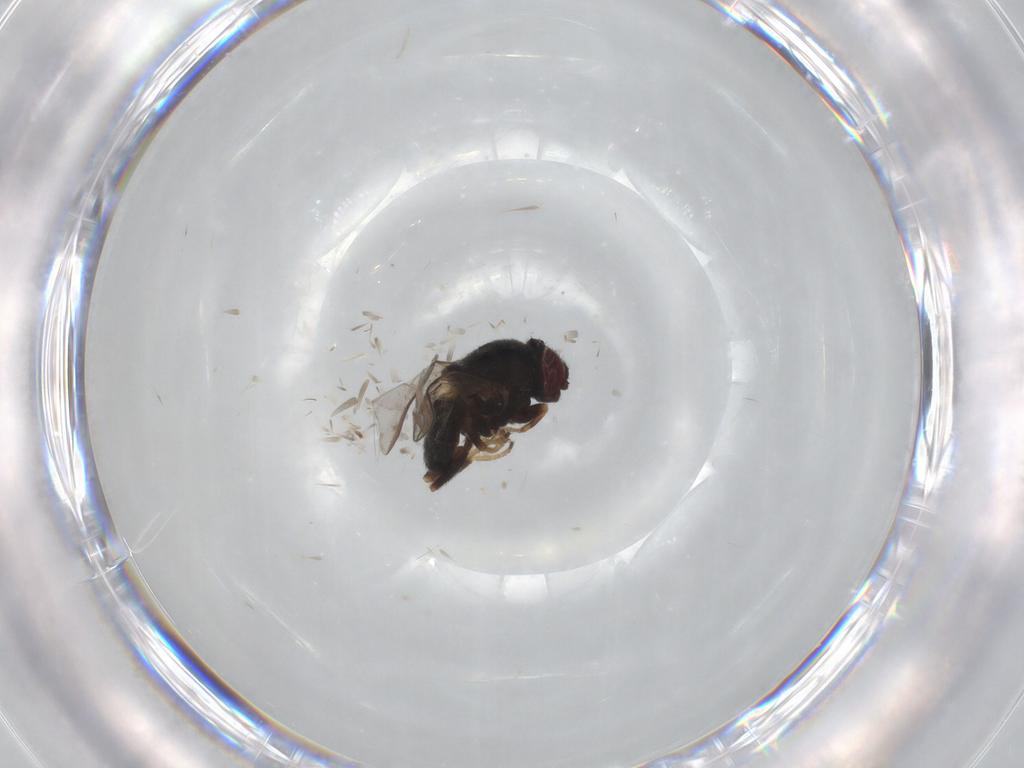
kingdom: Animalia
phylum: Arthropoda
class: Insecta
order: Diptera
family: Chloropidae
